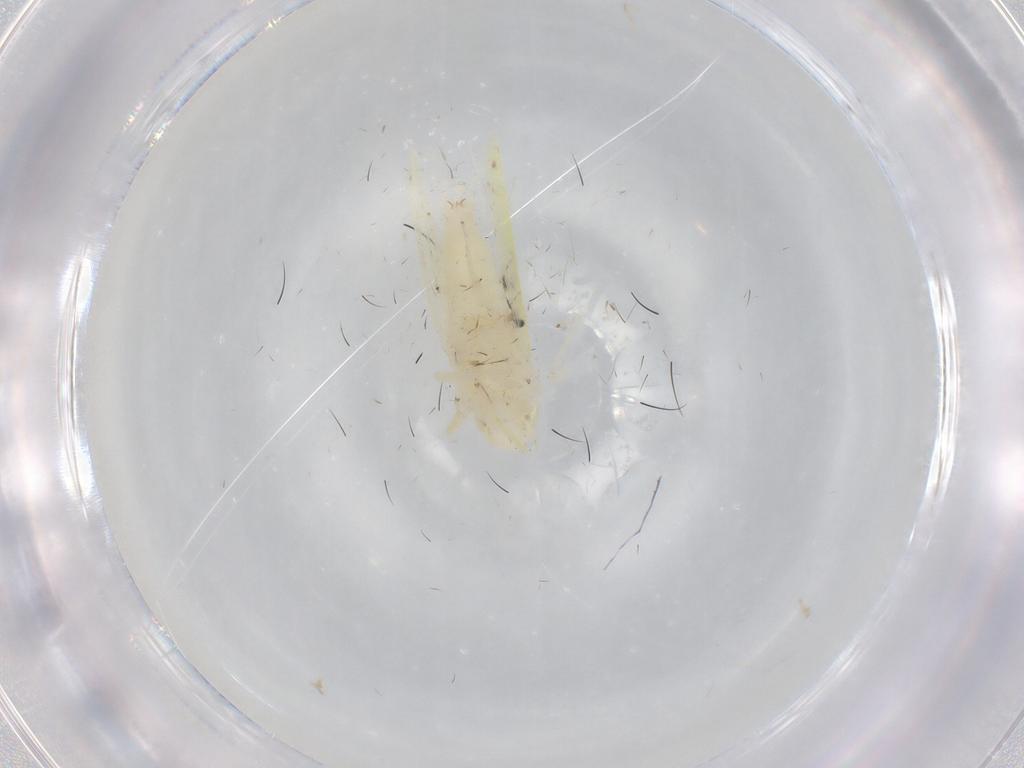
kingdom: Animalia
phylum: Arthropoda
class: Insecta
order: Hemiptera
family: Cicadellidae
